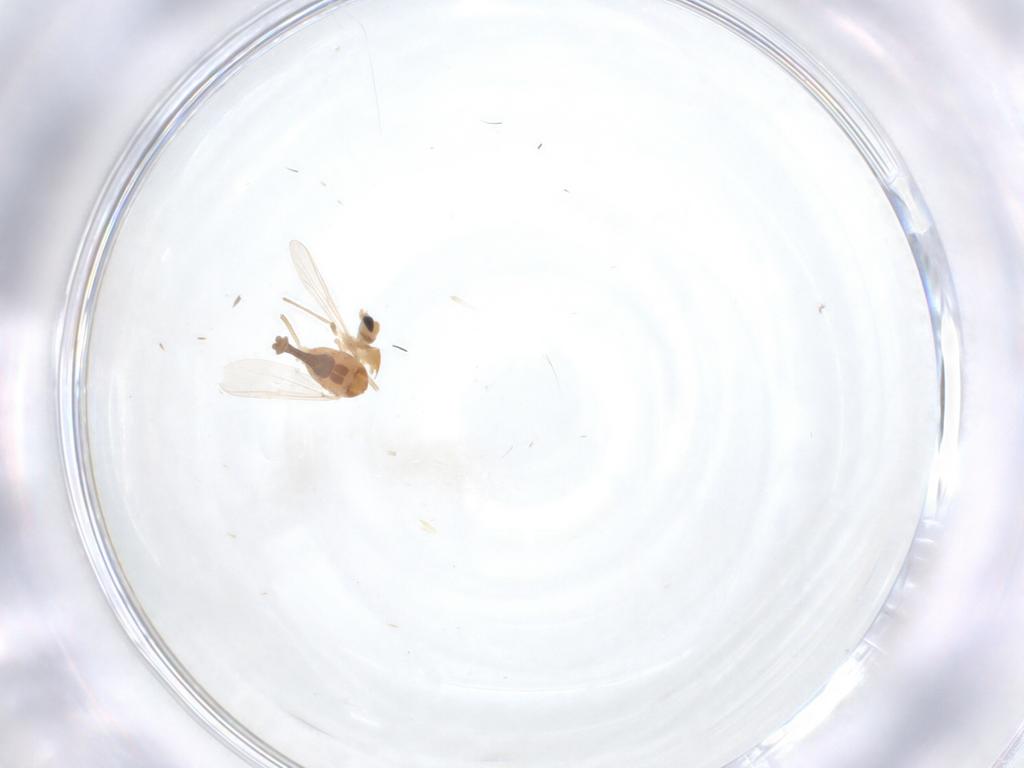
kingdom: Animalia
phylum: Arthropoda
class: Insecta
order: Diptera
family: Chironomidae
